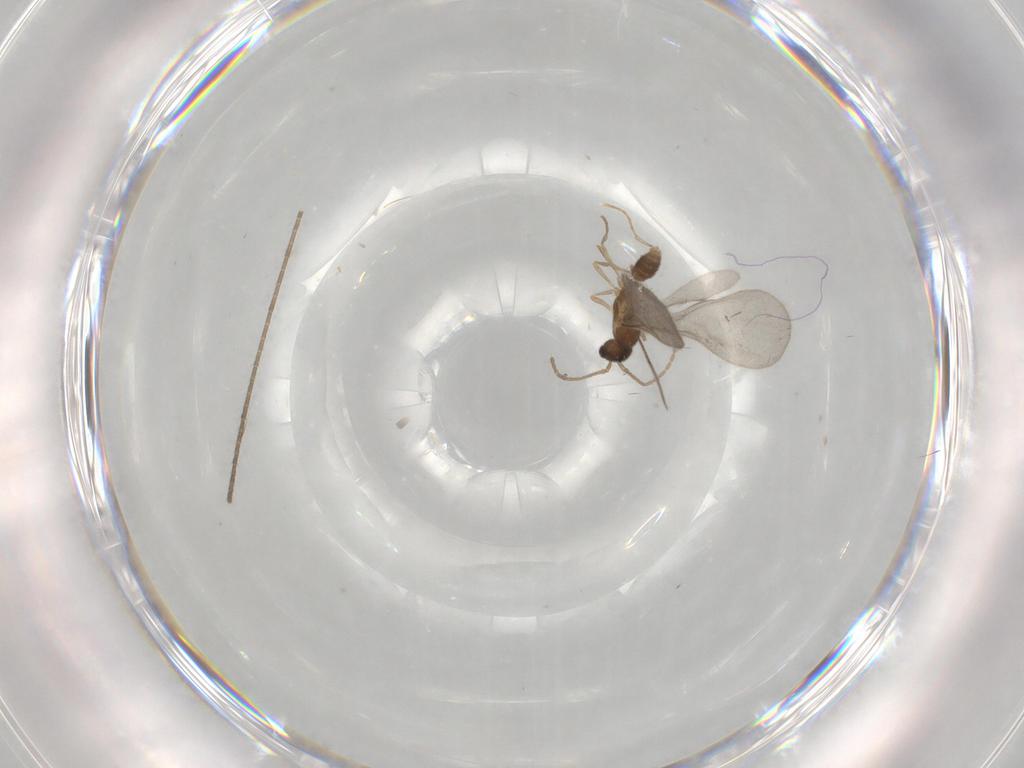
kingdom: Animalia
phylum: Arthropoda
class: Insecta
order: Hymenoptera
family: Formicidae
